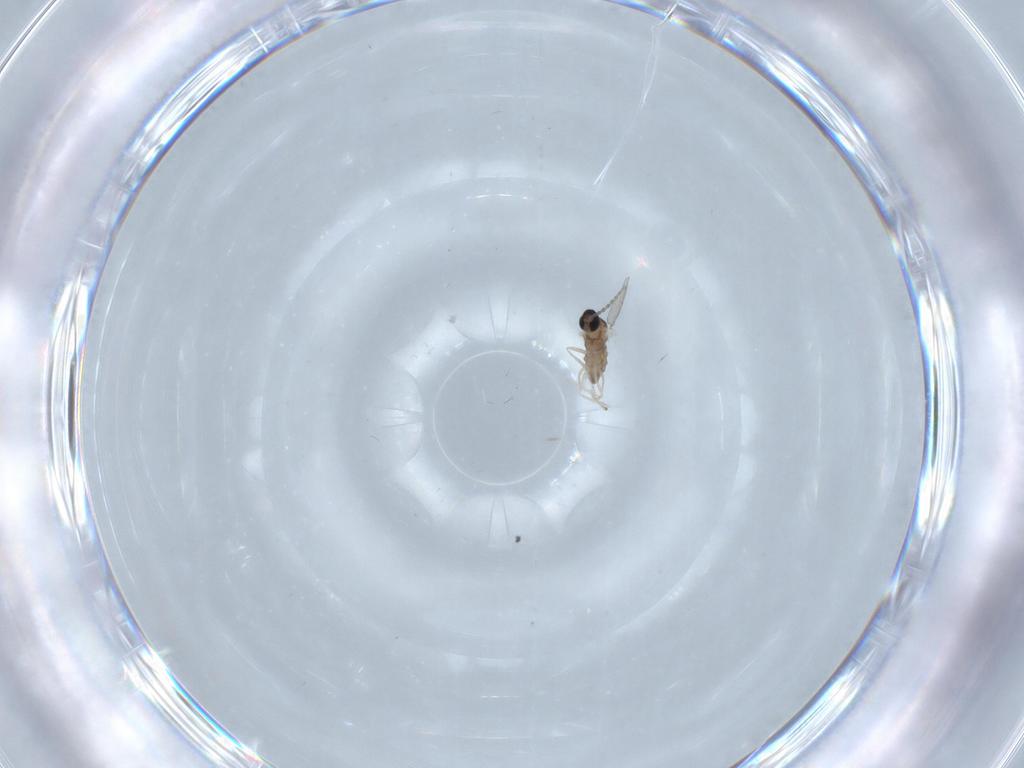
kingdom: Animalia
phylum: Arthropoda
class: Insecta
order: Diptera
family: Cecidomyiidae
